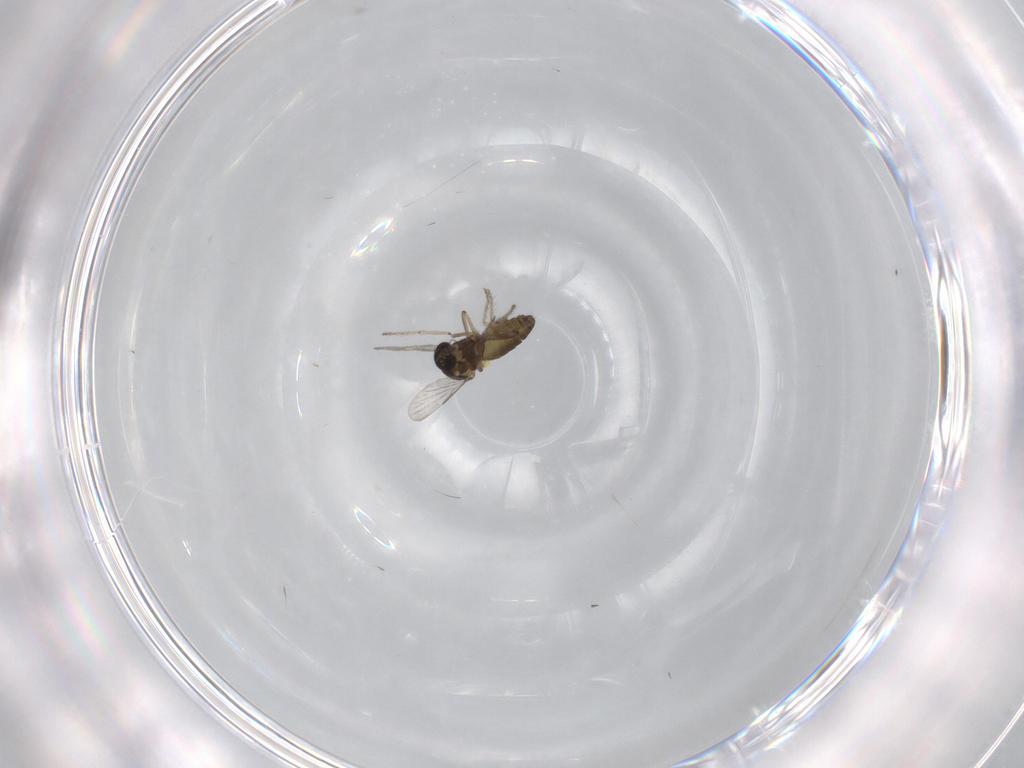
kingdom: Animalia
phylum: Arthropoda
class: Insecta
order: Diptera
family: Ceratopogonidae
